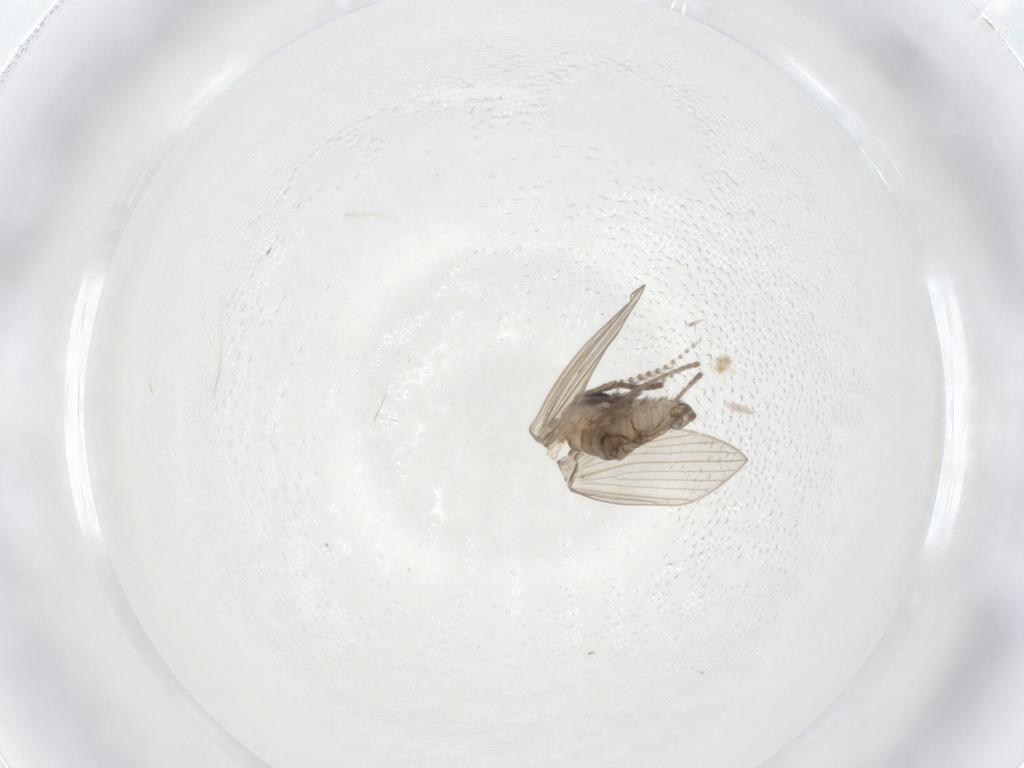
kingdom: Animalia
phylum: Arthropoda
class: Insecta
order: Diptera
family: Psychodidae
